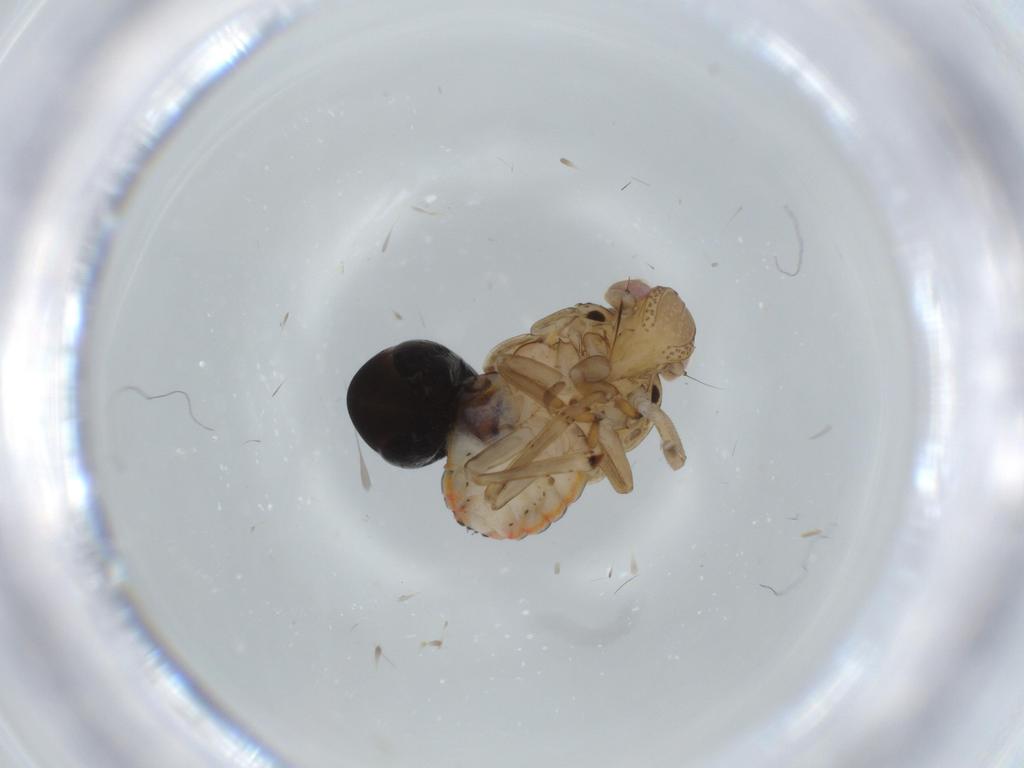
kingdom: Animalia
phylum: Arthropoda
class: Insecta
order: Hemiptera
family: Issidae
